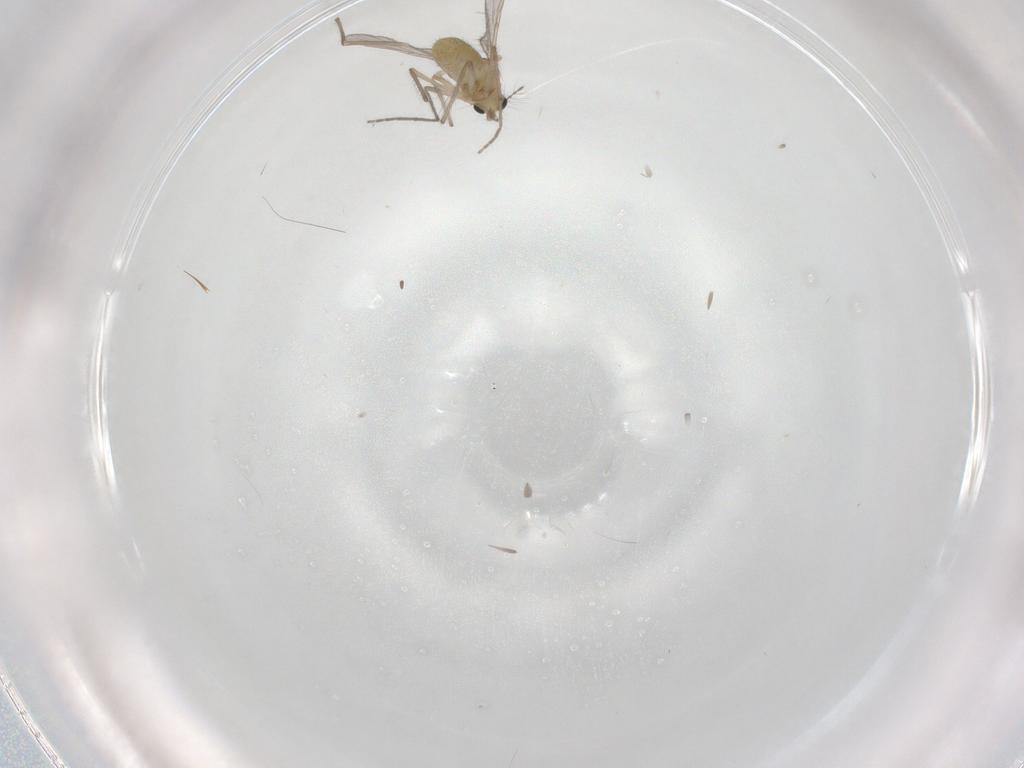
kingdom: Animalia
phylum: Arthropoda
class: Insecta
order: Diptera
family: Chironomidae
